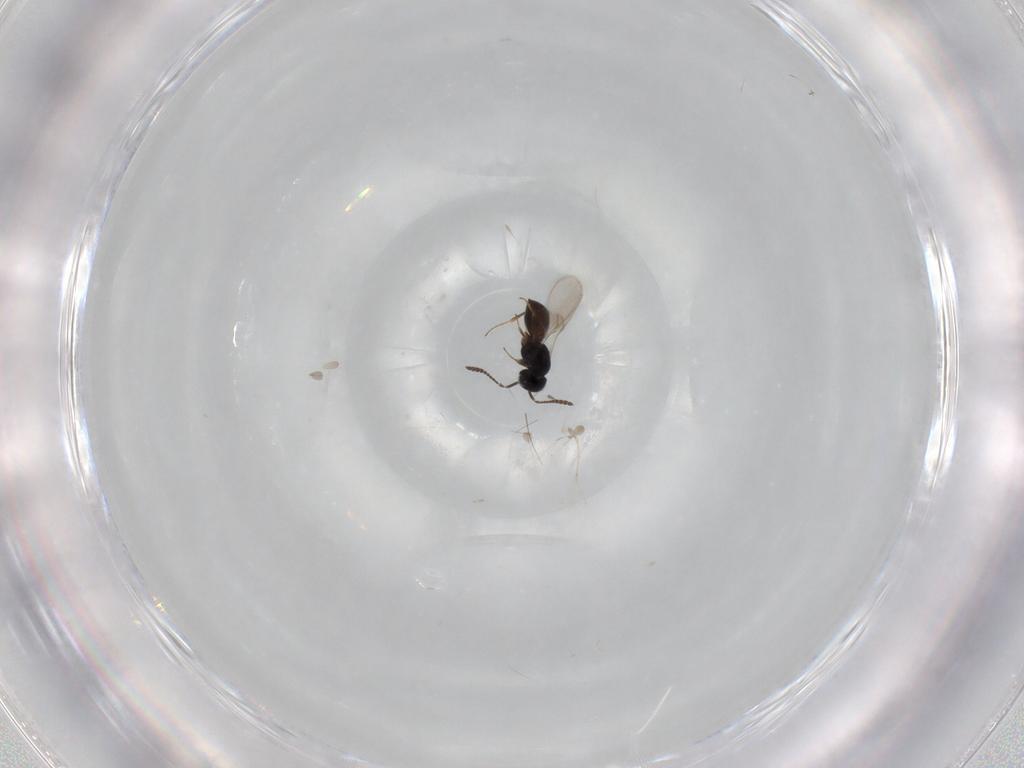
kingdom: Animalia
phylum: Arthropoda
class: Insecta
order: Hymenoptera
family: Scelionidae
